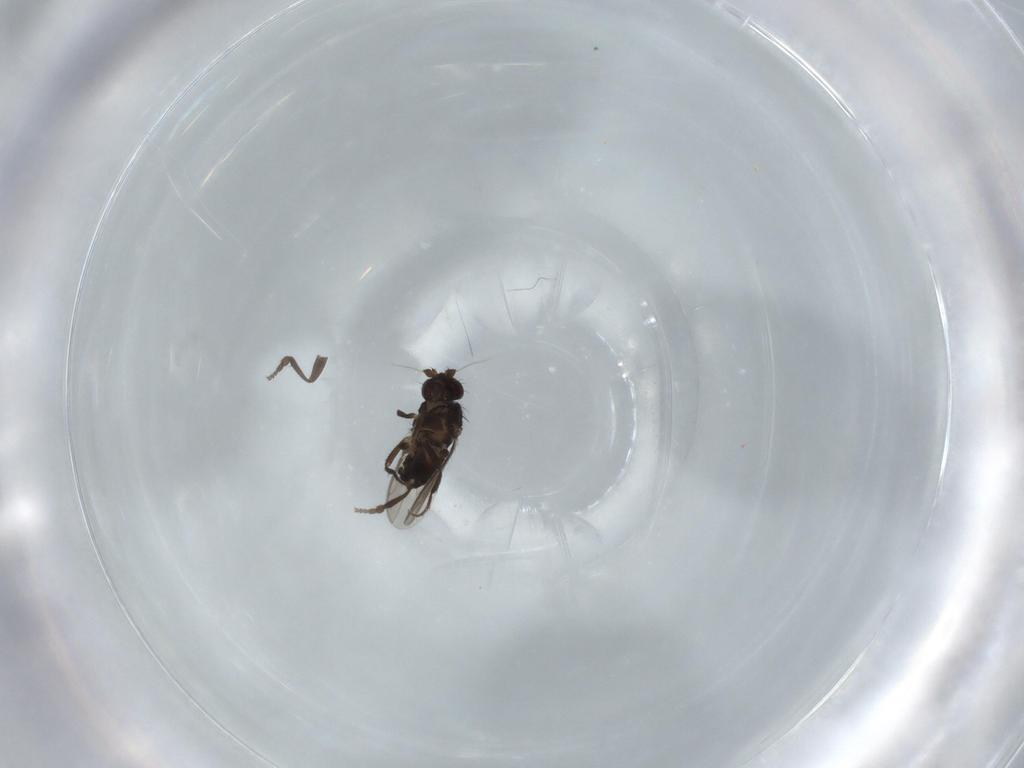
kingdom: Animalia
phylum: Arthropoda
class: Insecta
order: Diptera
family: Sphaeroceridae
